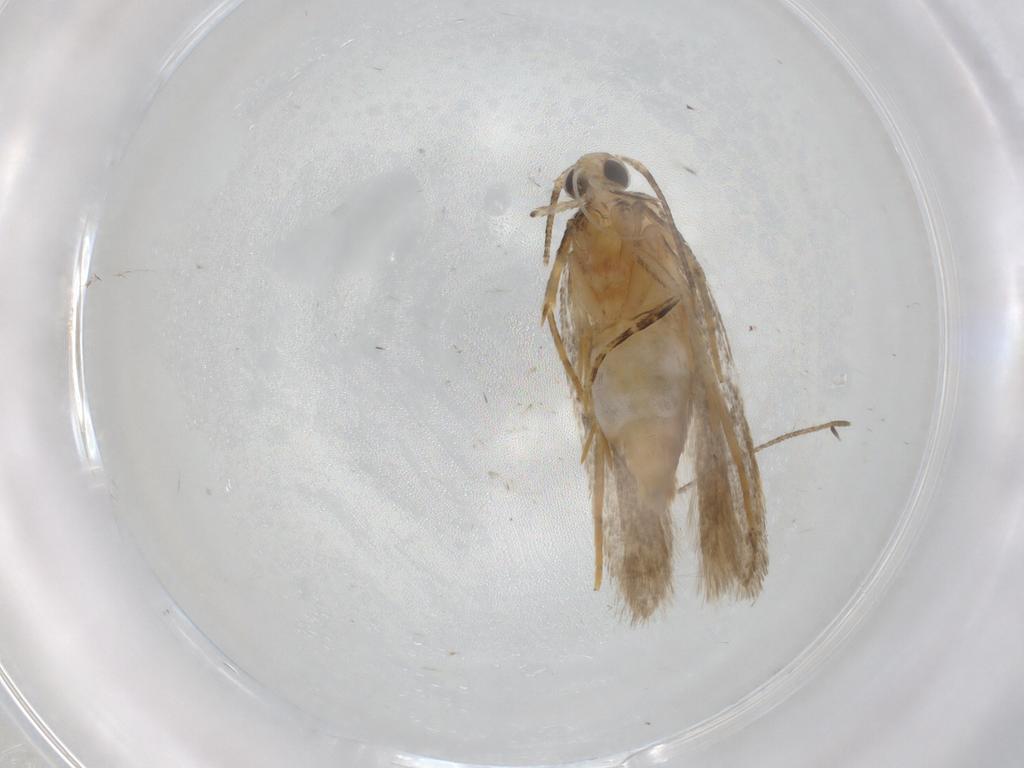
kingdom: Animalia
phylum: Arthropoda
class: Insecta
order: Lepidoptera
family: Autostichidae
